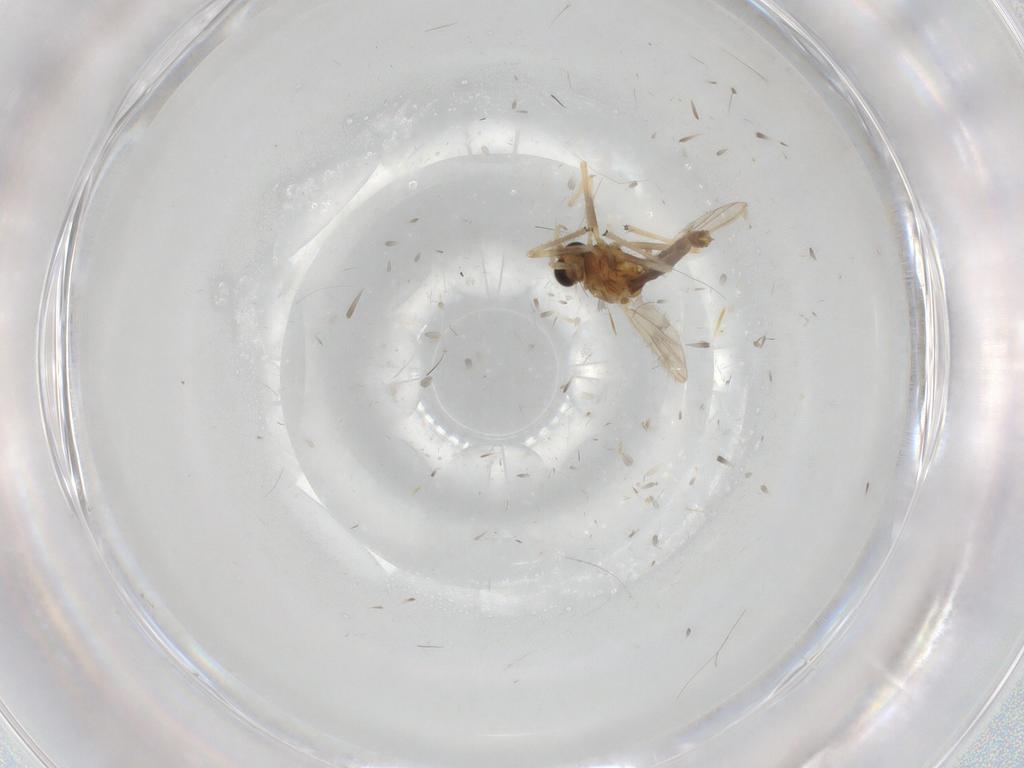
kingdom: Animalia
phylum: Arthropoda
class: Insecta
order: Diptera
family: Chironomidae
